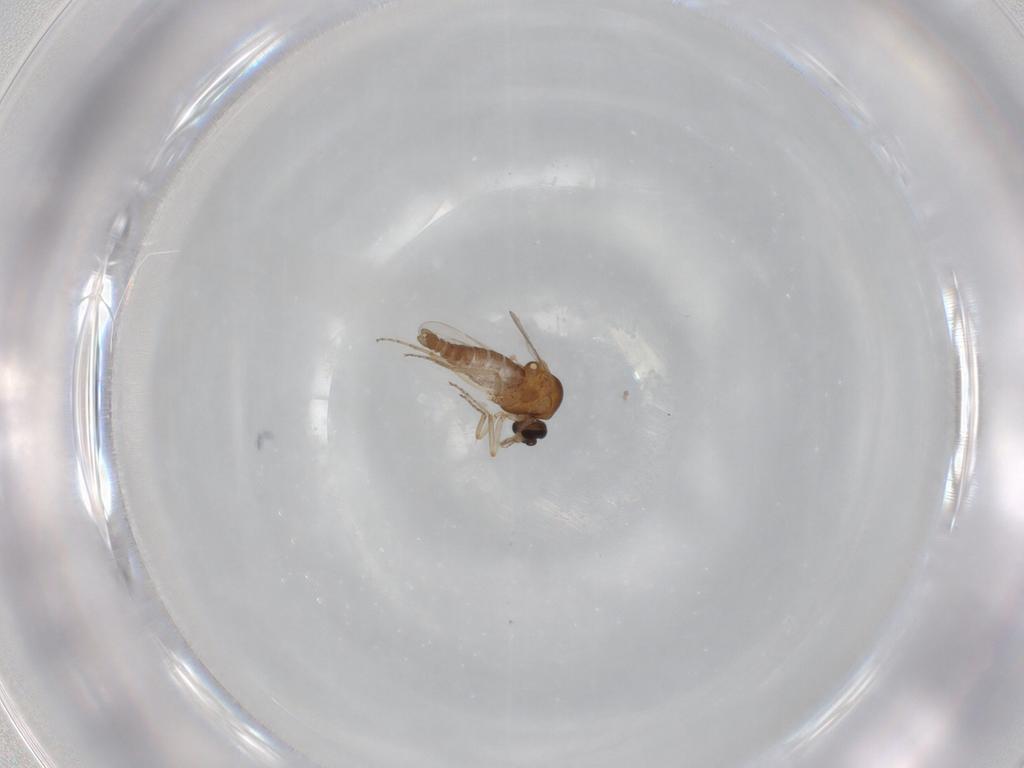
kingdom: Animalia
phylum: Arthropoda
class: Insecta
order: Diptera
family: Ceratopogonidae
